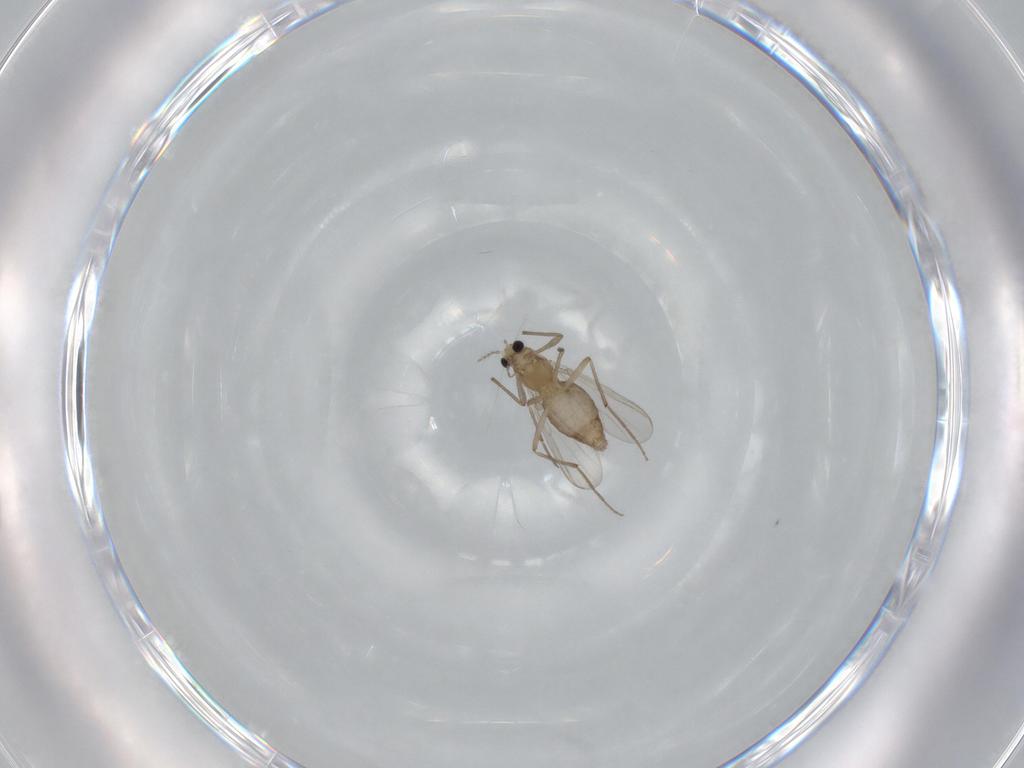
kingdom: Animalia
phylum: Arthropoda
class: Insecta
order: Diptera
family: Chironomidae
